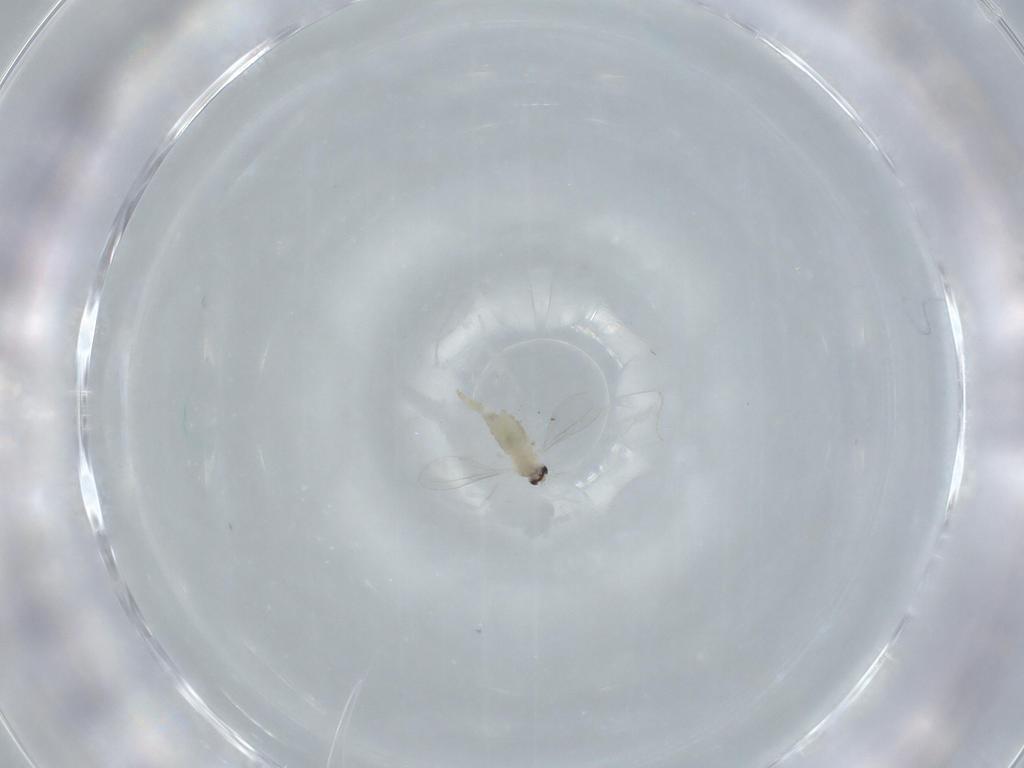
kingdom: Animalia
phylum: Arthropoda
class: Insecta
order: Diptera
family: Cecidomyiidae
